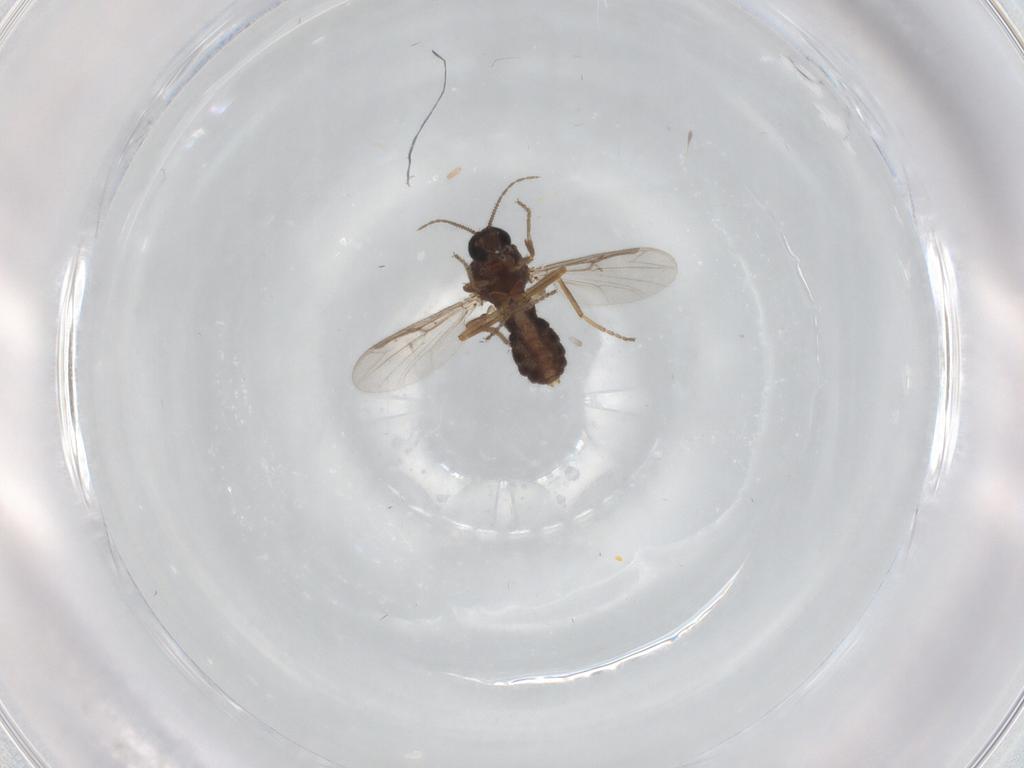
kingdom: Animalia
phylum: Arthropoda
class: Insecta
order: Diptera
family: Chironomidae
